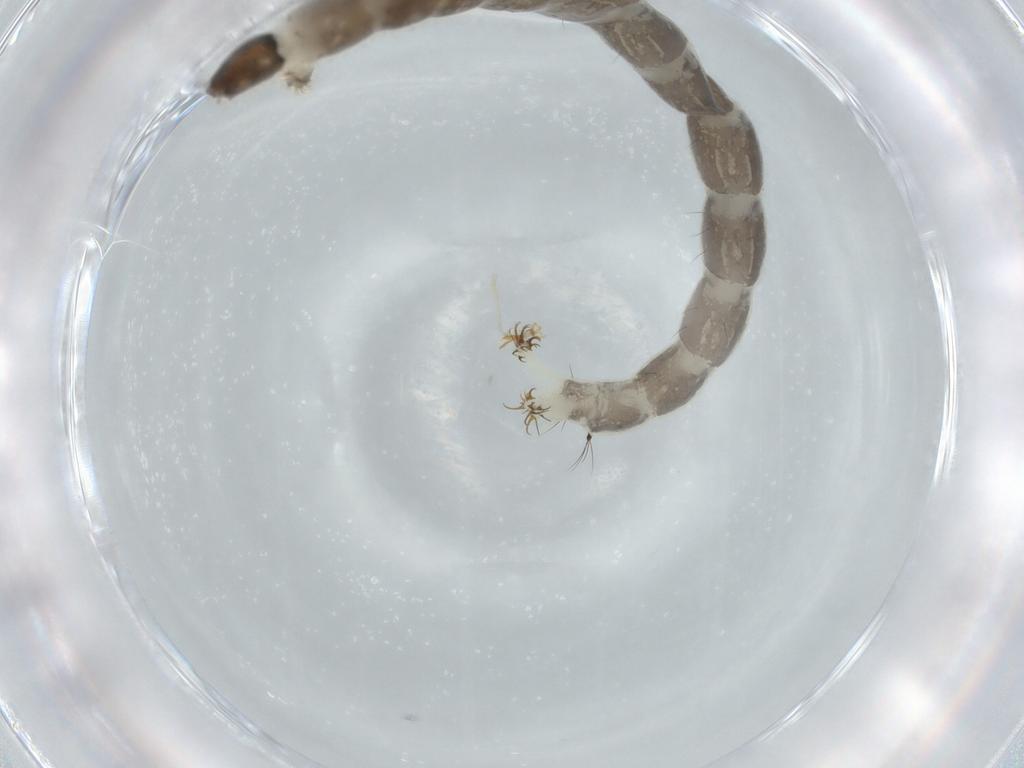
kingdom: Animalia
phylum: Arthropoda
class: Insecta
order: Diptera
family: Chironomidae
